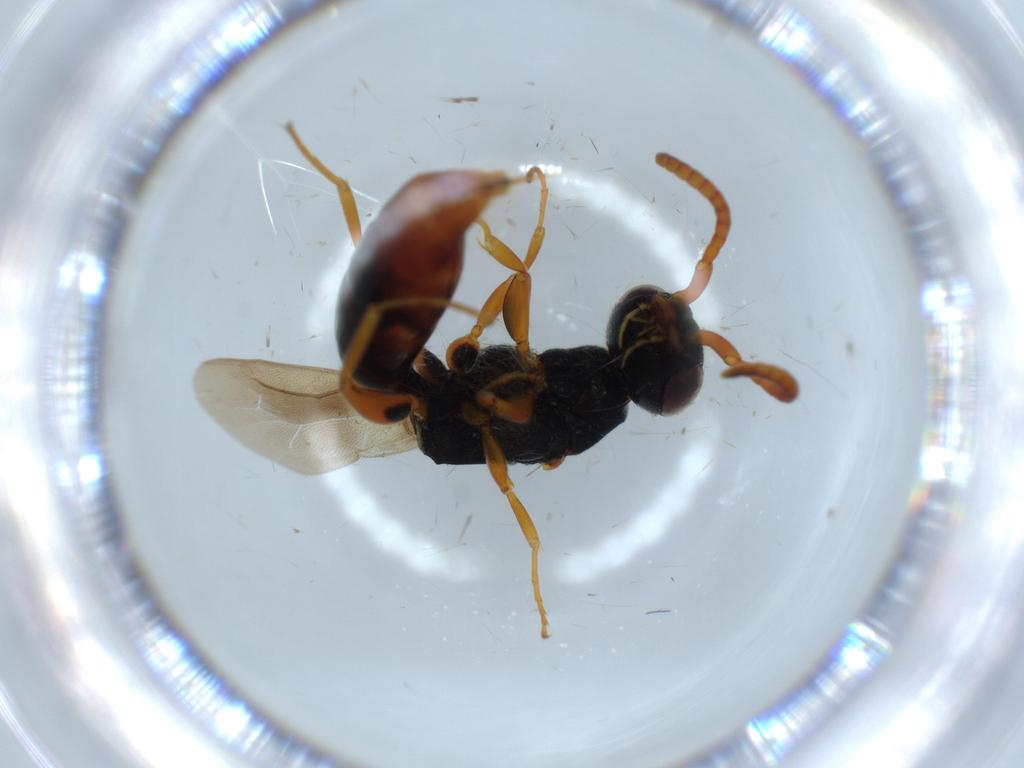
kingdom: Animalia
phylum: Arthropoda
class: Insecta
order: Hymenoptera
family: Bethylidae
